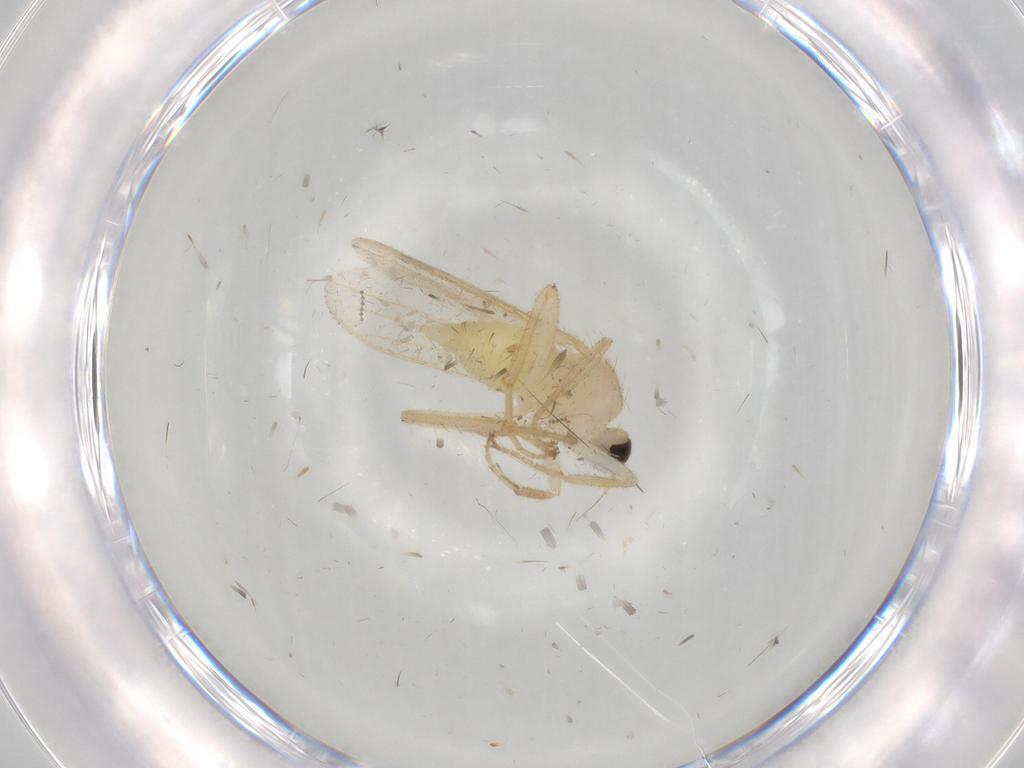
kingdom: Animalia
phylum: Arthropoda
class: Insecta
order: Diptera
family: Hybotidae
